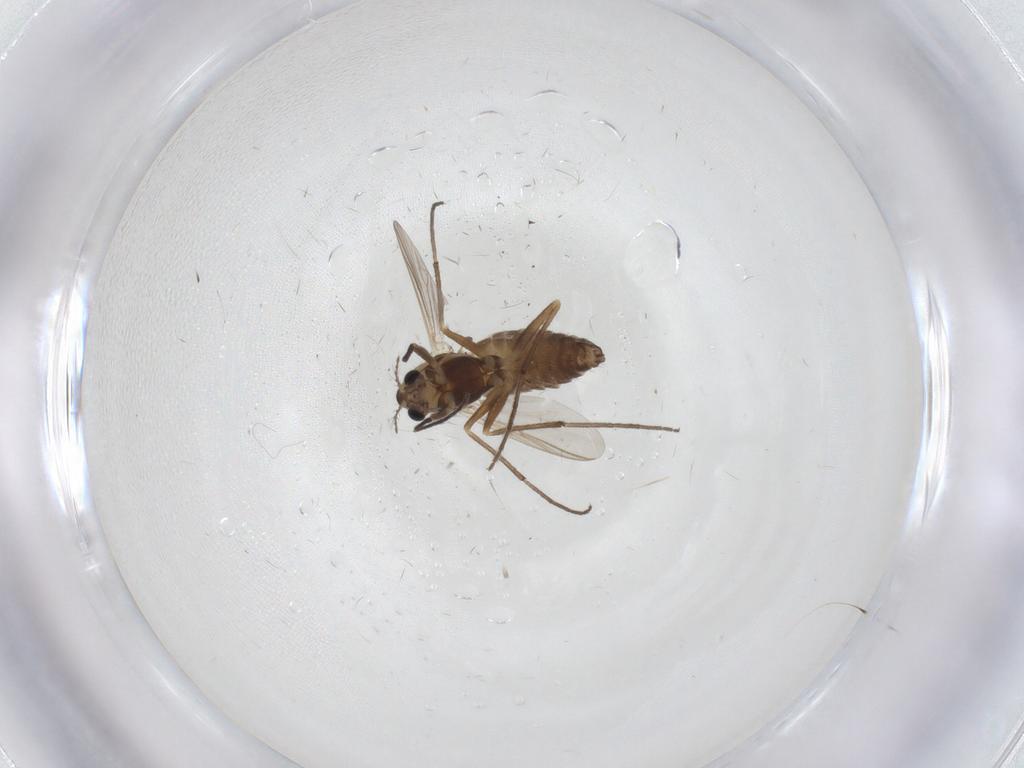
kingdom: Animalia
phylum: Arthropoda
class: Insecta
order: Diptera
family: Chironomidae
